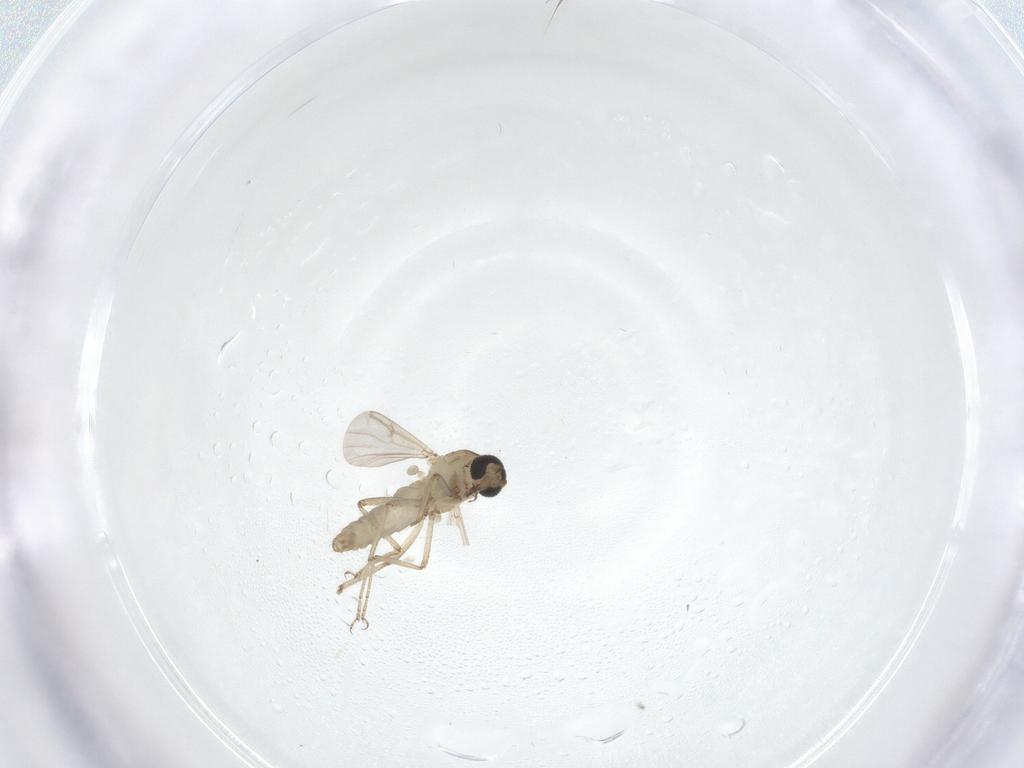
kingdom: Animalia
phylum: Arthropoda
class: Insecta
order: Diptera
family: Ceratopogonidae
